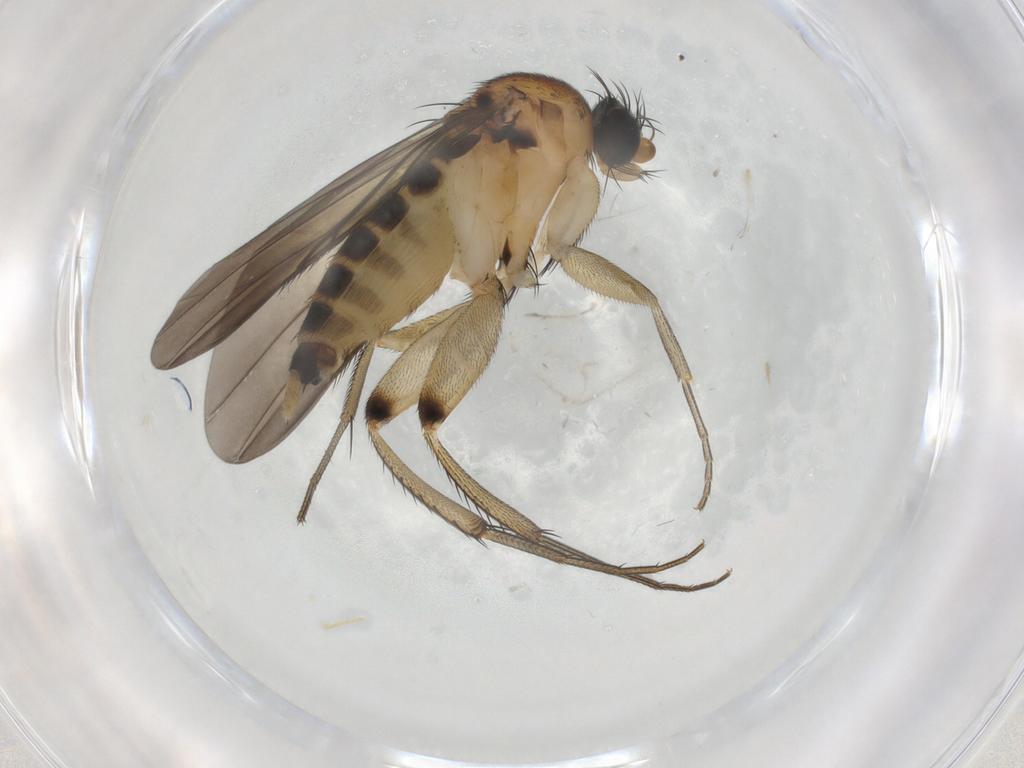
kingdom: Animalia
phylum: Arthropoda
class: Insecta
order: Diptera
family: Phoridae
